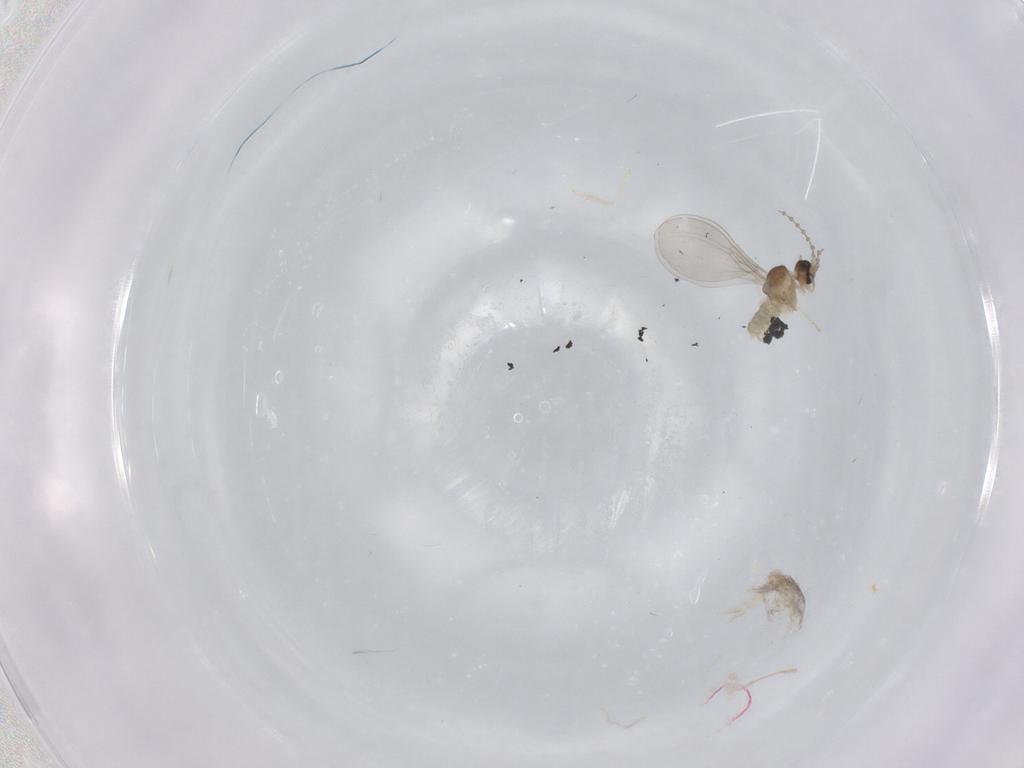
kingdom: Animalia
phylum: Arthropoda
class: Insecta
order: Diptera
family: Cecidomyiidae
